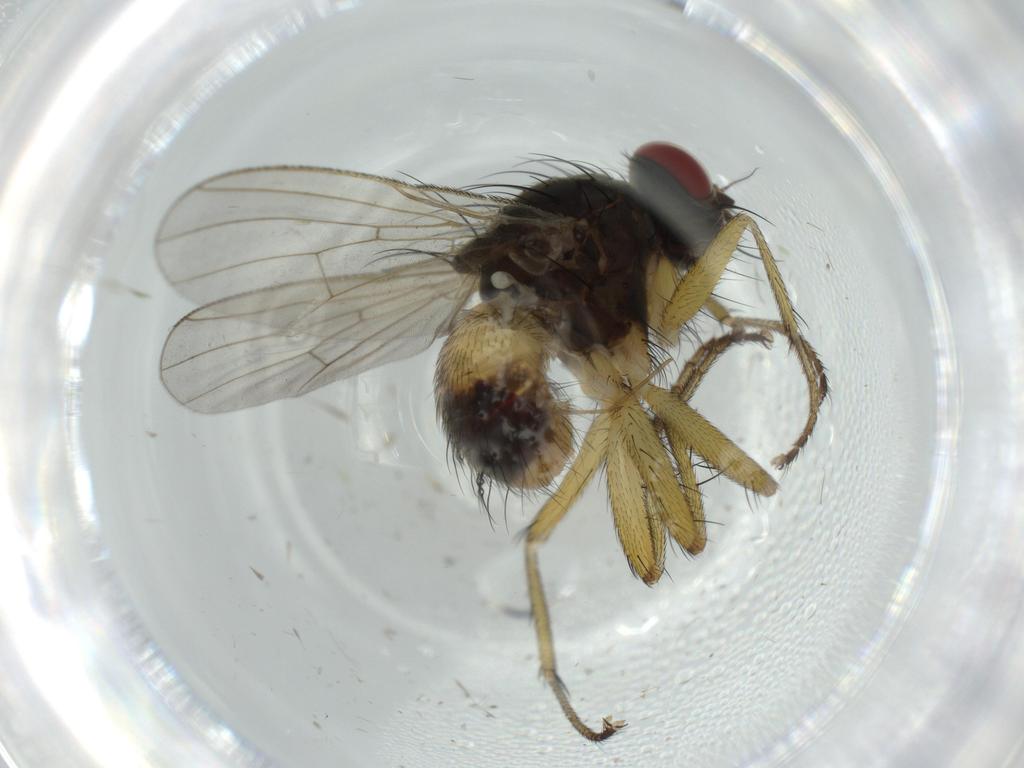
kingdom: Animalia
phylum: Arthropoda
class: Insecta
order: Diptera
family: Muscidae
